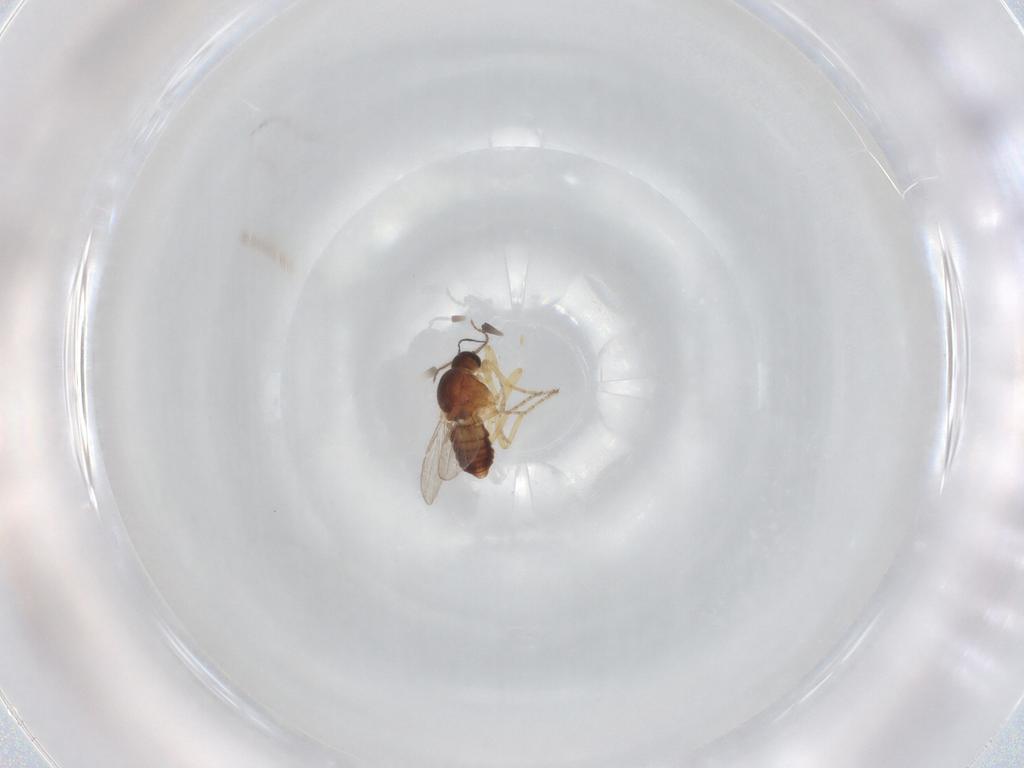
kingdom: Animalia
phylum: Arthropoda
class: Insecta
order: Diptera
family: Ceratopogonidae
